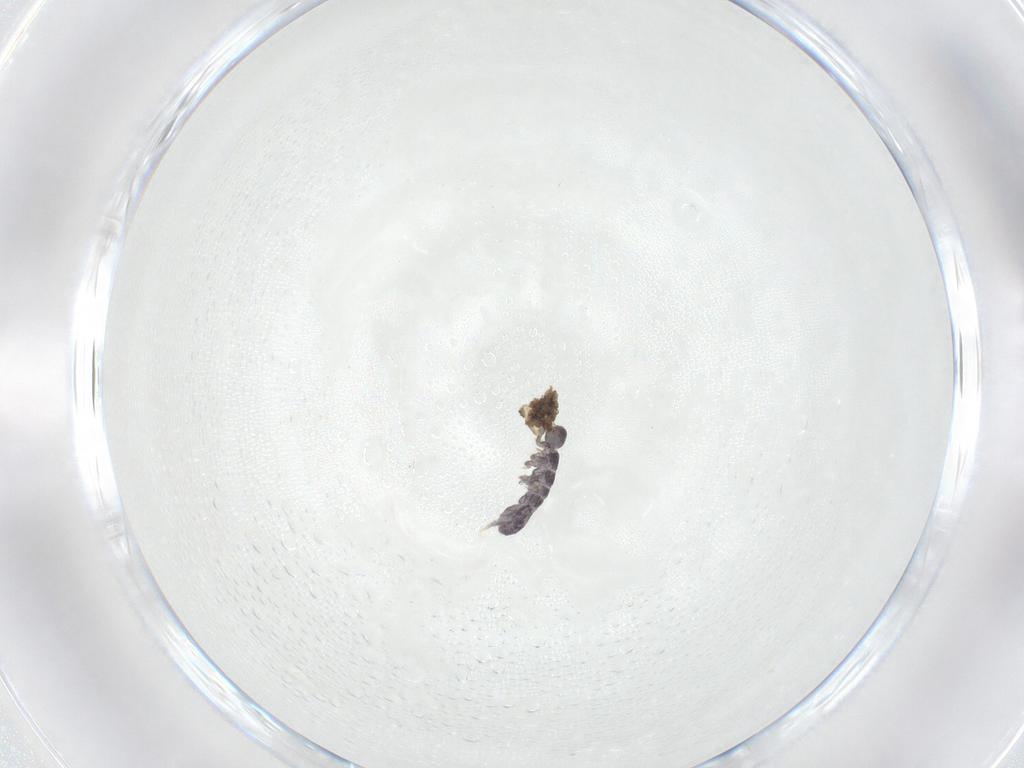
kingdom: Animalia
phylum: Arthropoda
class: Collembola
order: Entomobryomorpha
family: Tomoceridae
